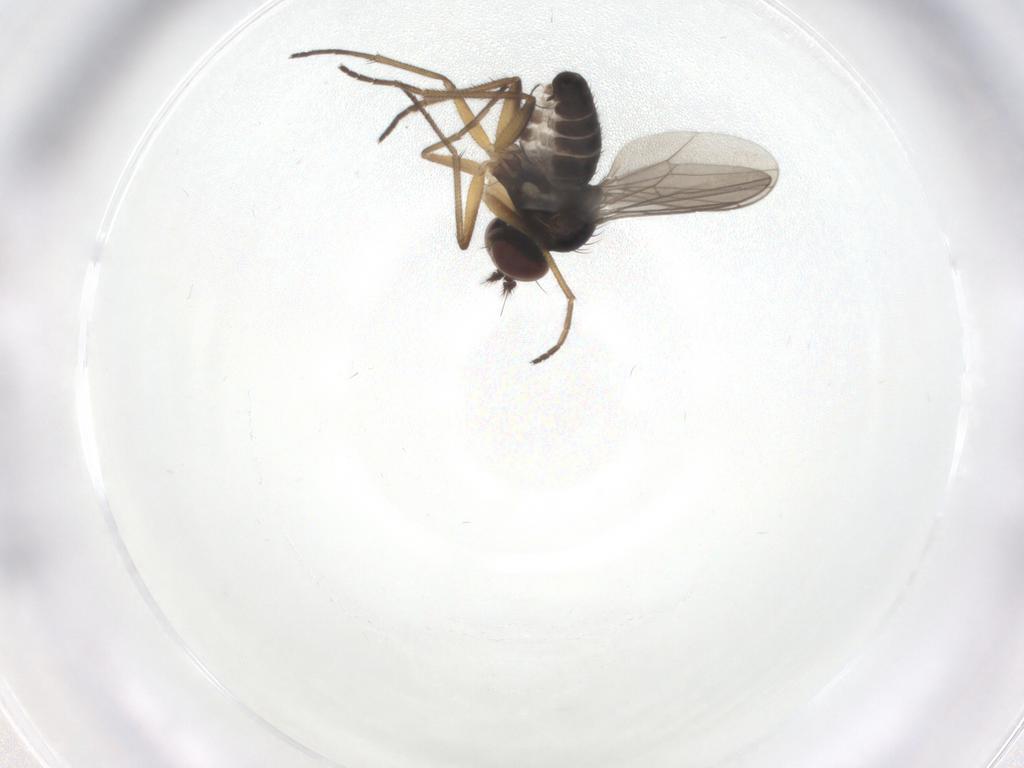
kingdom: Animalia
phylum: Arthropoda
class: Insecta
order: Diptera
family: Dolichopodidae
